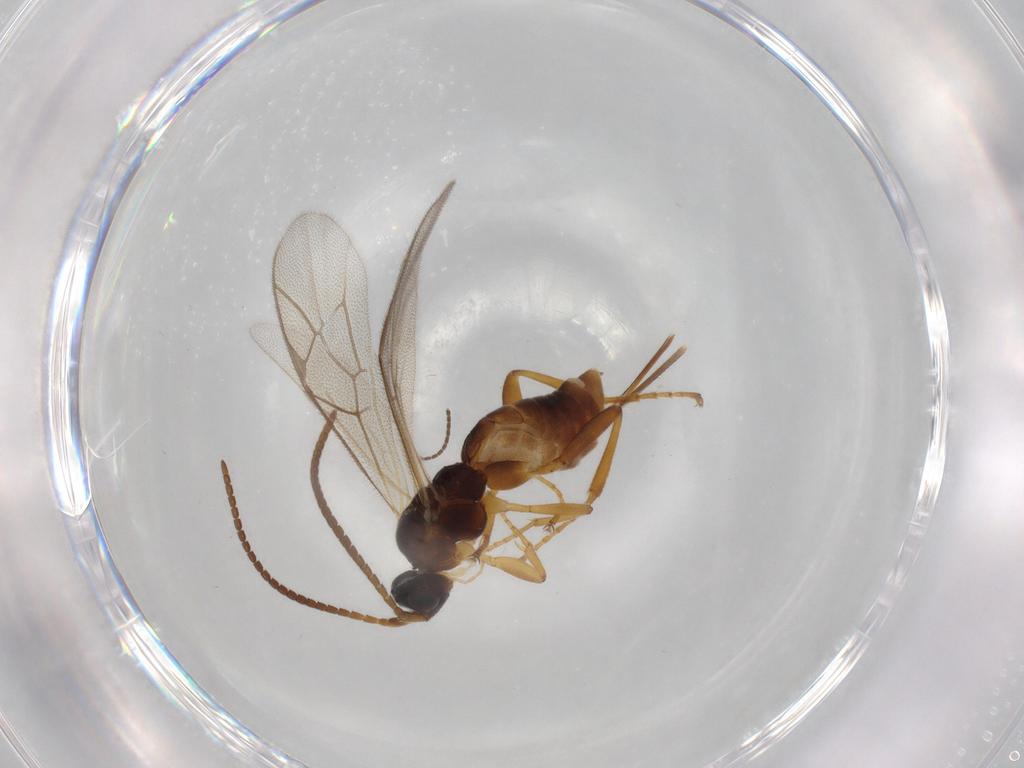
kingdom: Animalia
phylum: Arthropoda
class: Insecta
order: Hymenoptera
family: Ichneumonidae
